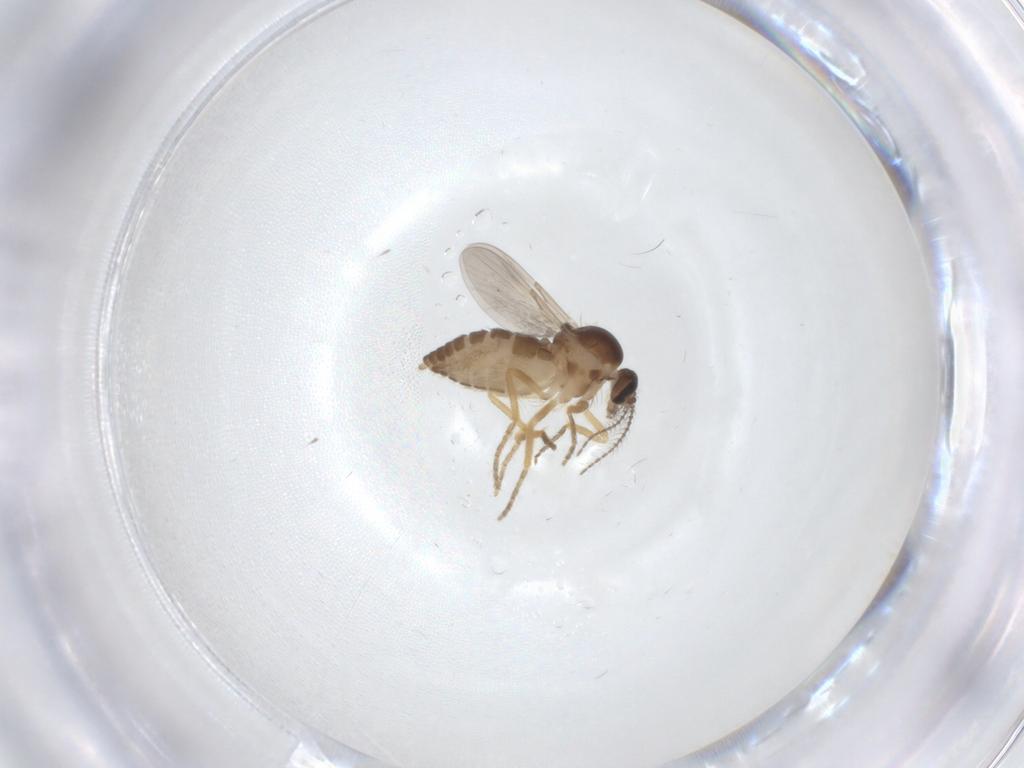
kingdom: Animalia
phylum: Arthropoda
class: Insecta
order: Diptera
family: Ceratopogonidae
